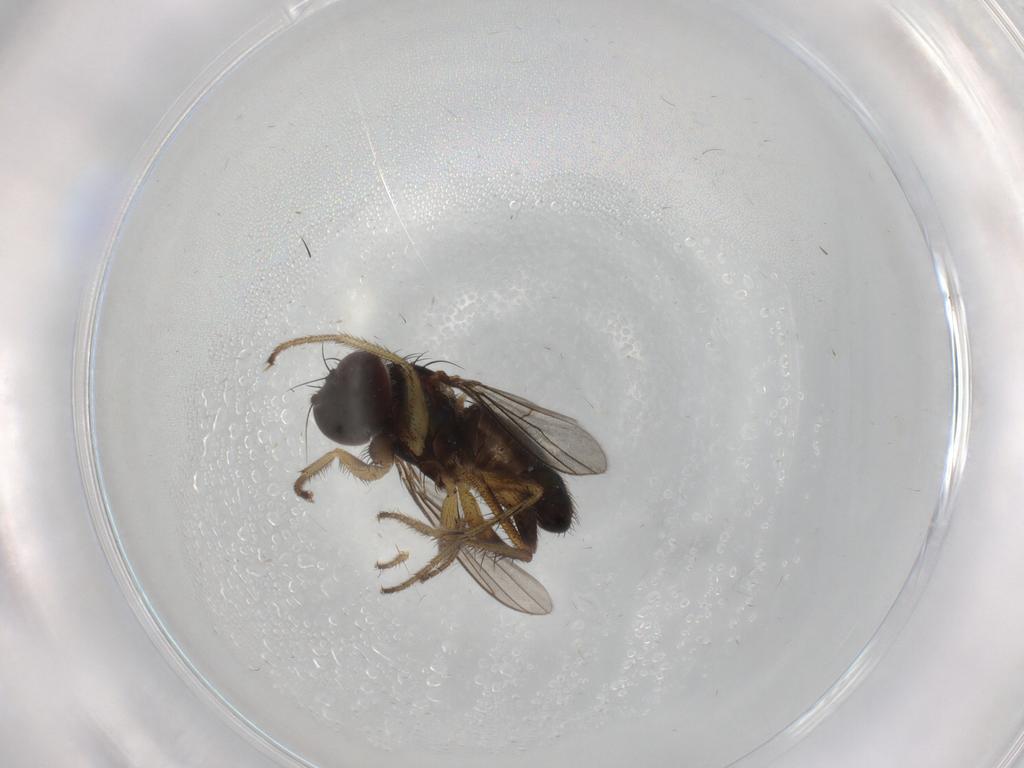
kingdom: Animalia
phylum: Arthropoda
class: Insecta
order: Diptera
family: Dolichopodidae
